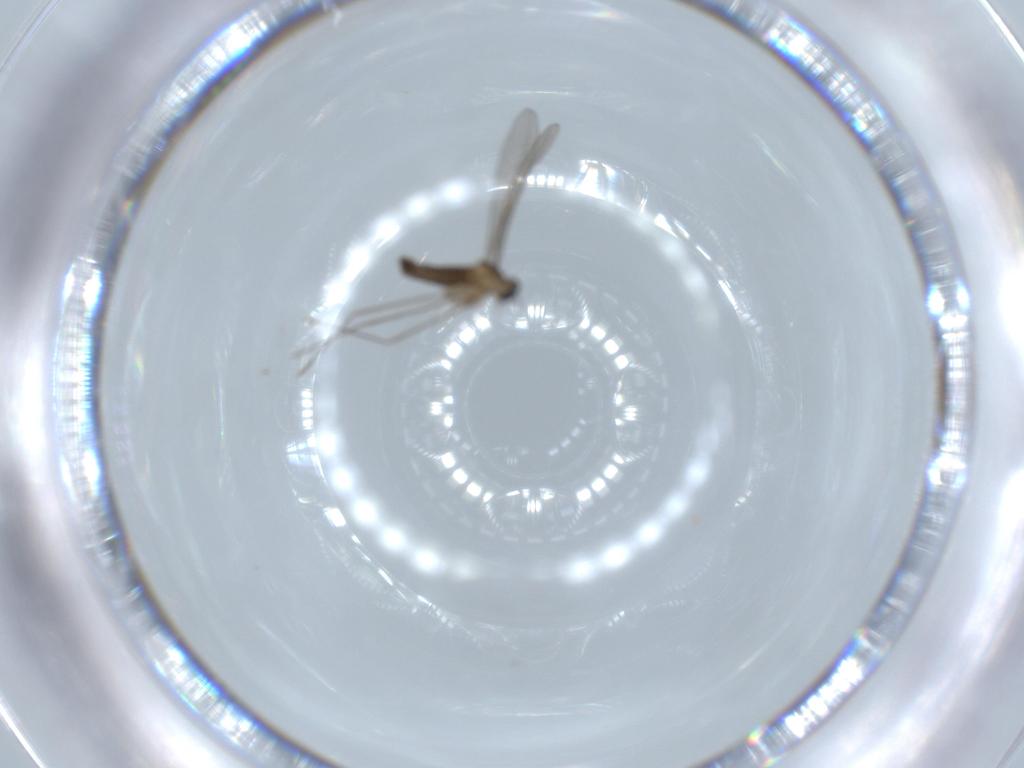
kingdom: Animalia
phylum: Arthropoda
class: Insecta
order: Diptera
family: Cecidomyiidae
